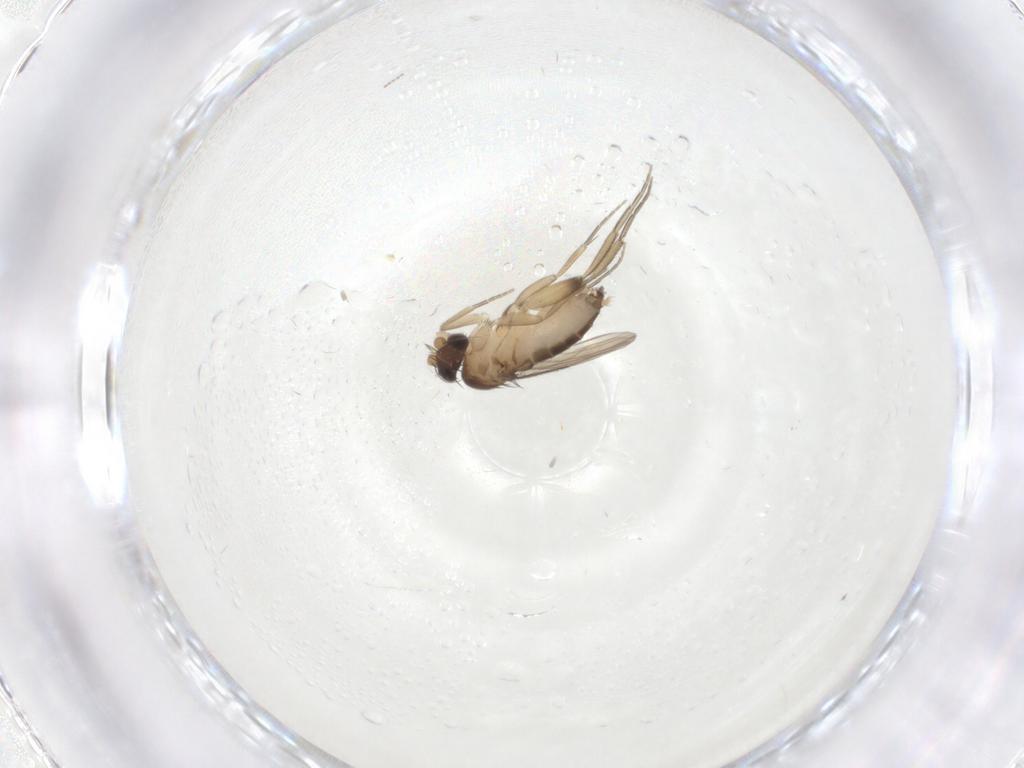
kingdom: Animalia
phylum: Arthropoda
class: Insecta
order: Diptera
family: Phoridae
